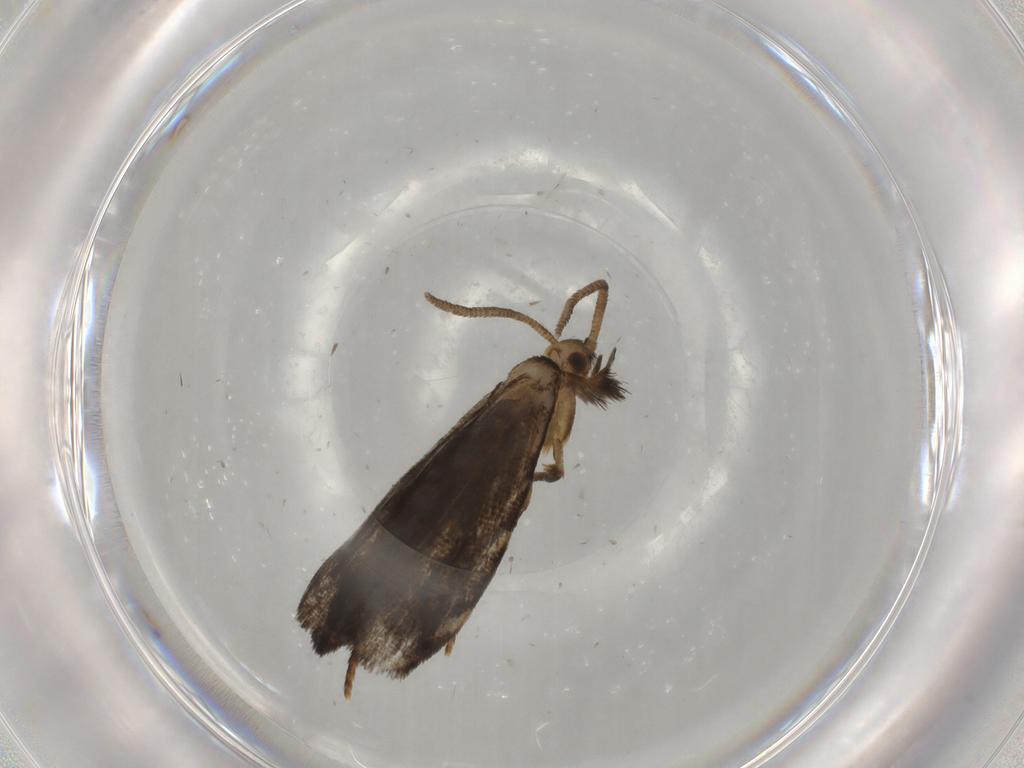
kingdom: Animalia
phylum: Arthropoda
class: Insecta
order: Lepidoptera
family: Dryadaulidae
